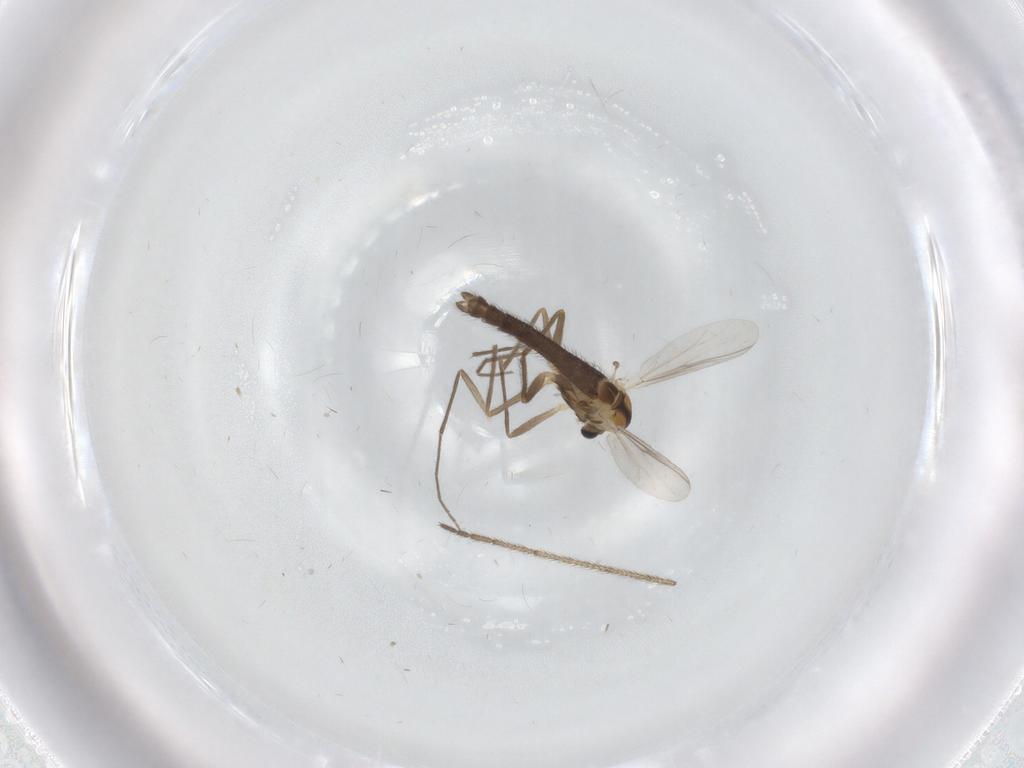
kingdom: Animalia
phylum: Arthropoda
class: Insecta
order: Diptera
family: Chironomidae
